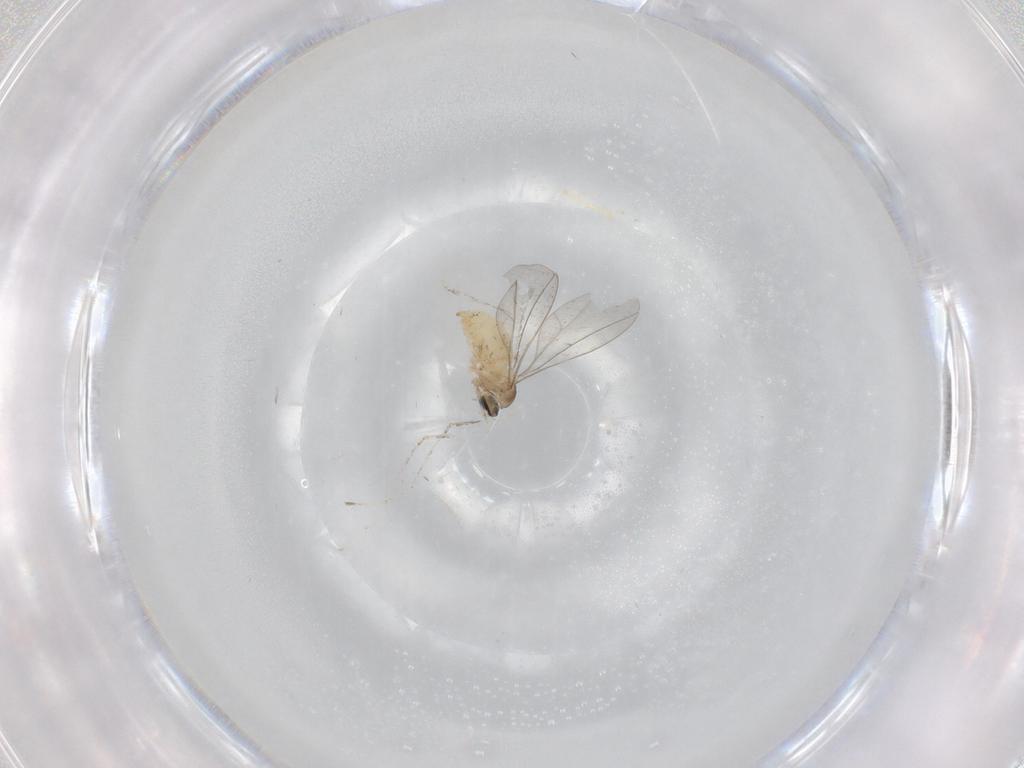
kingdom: Animalia
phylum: Arthropoda
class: Insecta
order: Diptera
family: Cecidomyiidae
